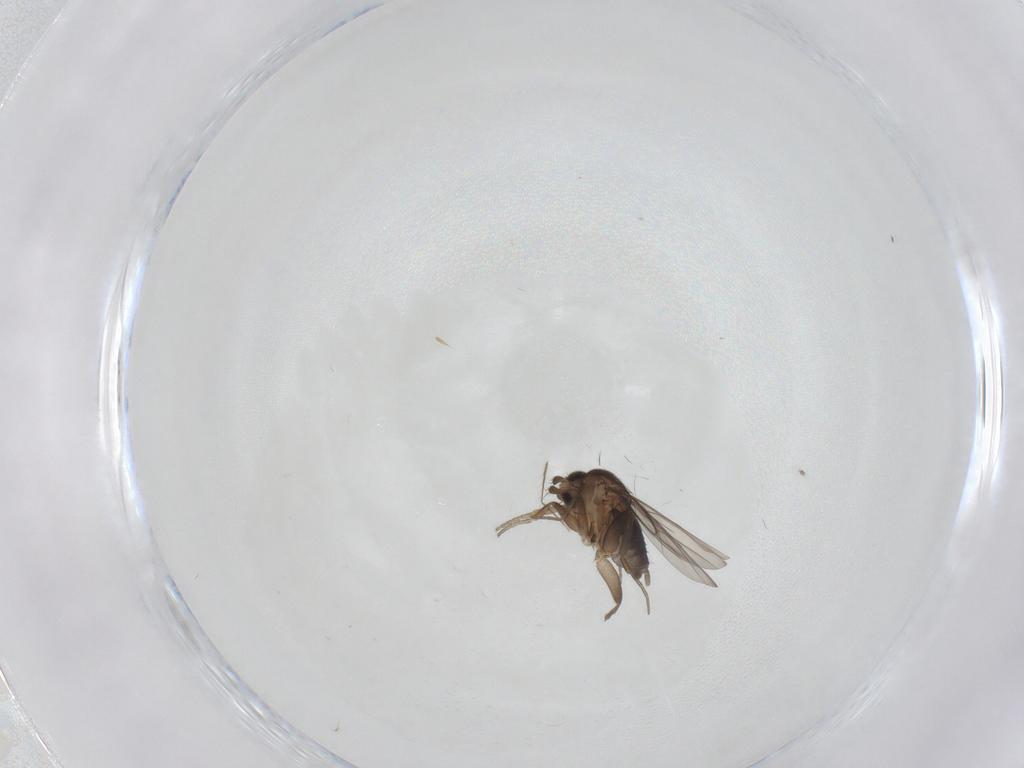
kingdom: Animalia
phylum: Arthropoda
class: Insecta
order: Diptera
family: Phoridae
